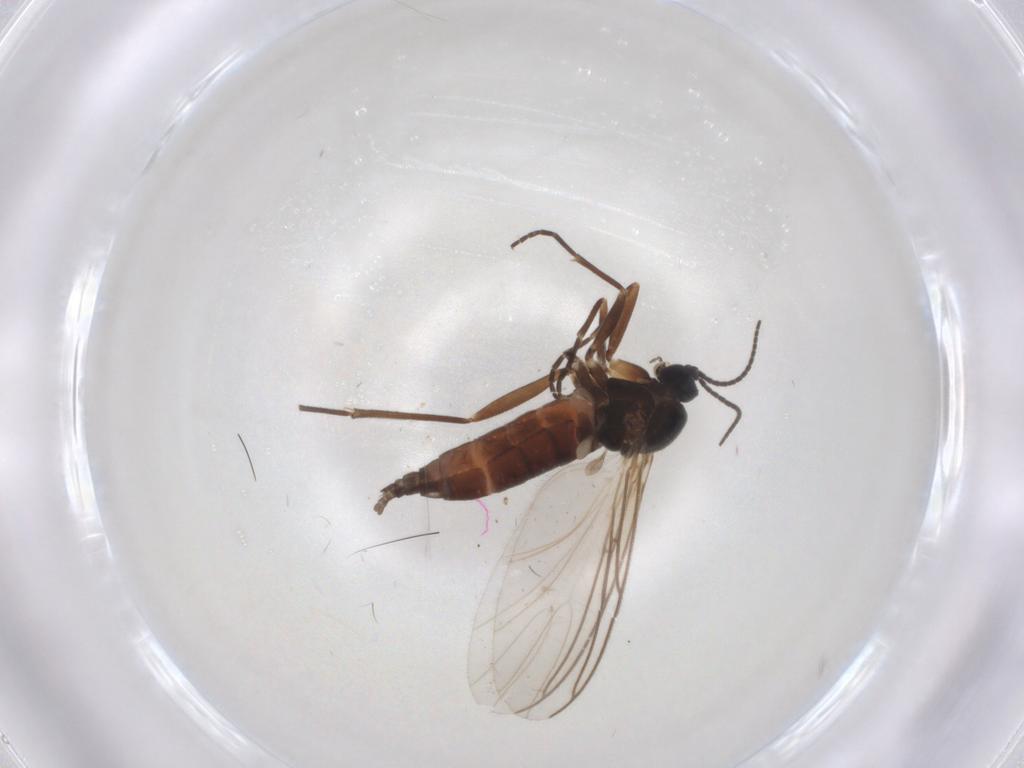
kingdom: Animalia
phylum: Arthropoda
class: Insecta
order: Diptera
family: Sciaridae
